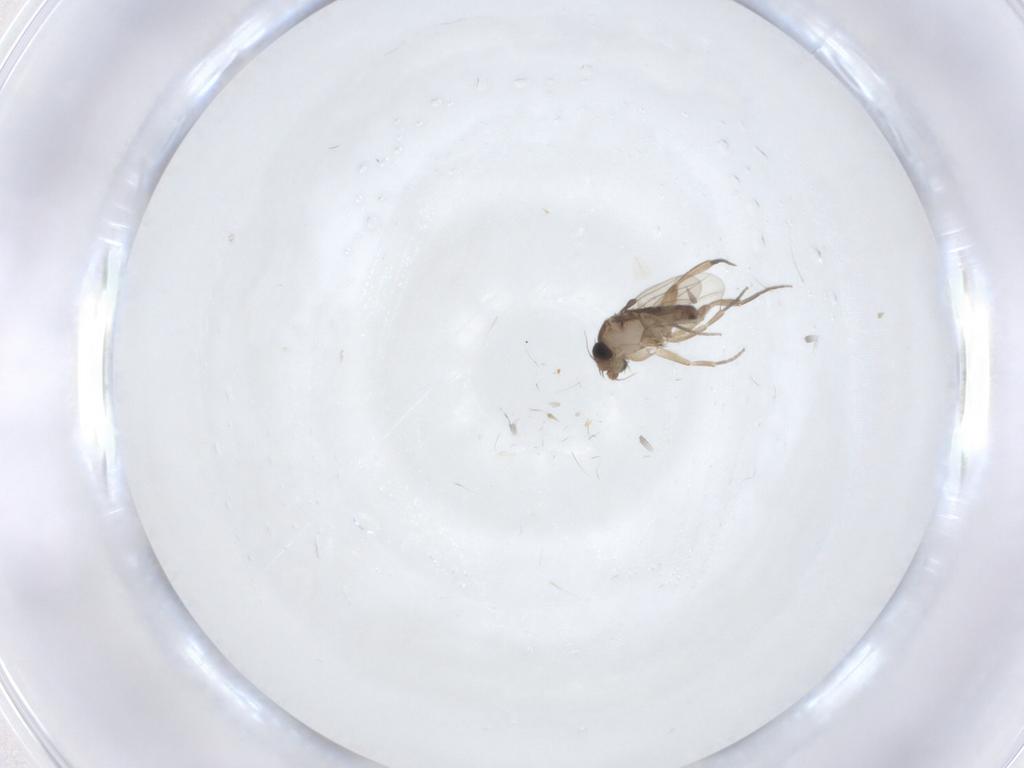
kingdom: Animalia
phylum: Arthropoda
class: Insecta
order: Diptera
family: Phoridae
